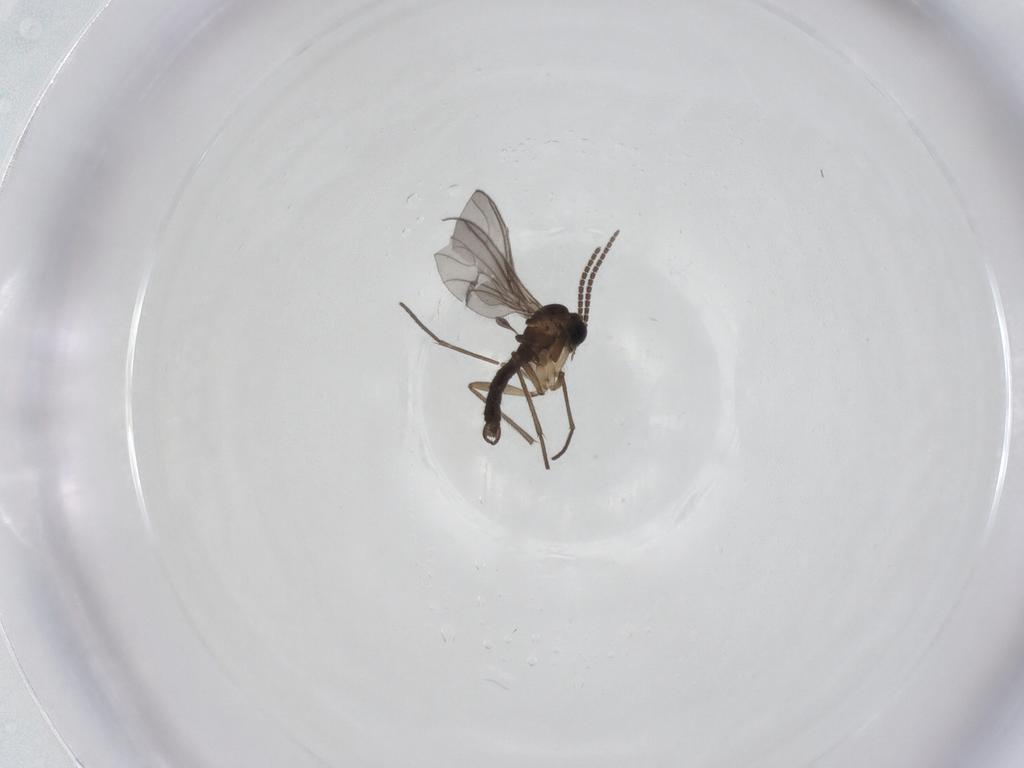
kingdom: Animalia
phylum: Arthropoda
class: Insecta
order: Diptera
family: Sciaridae
